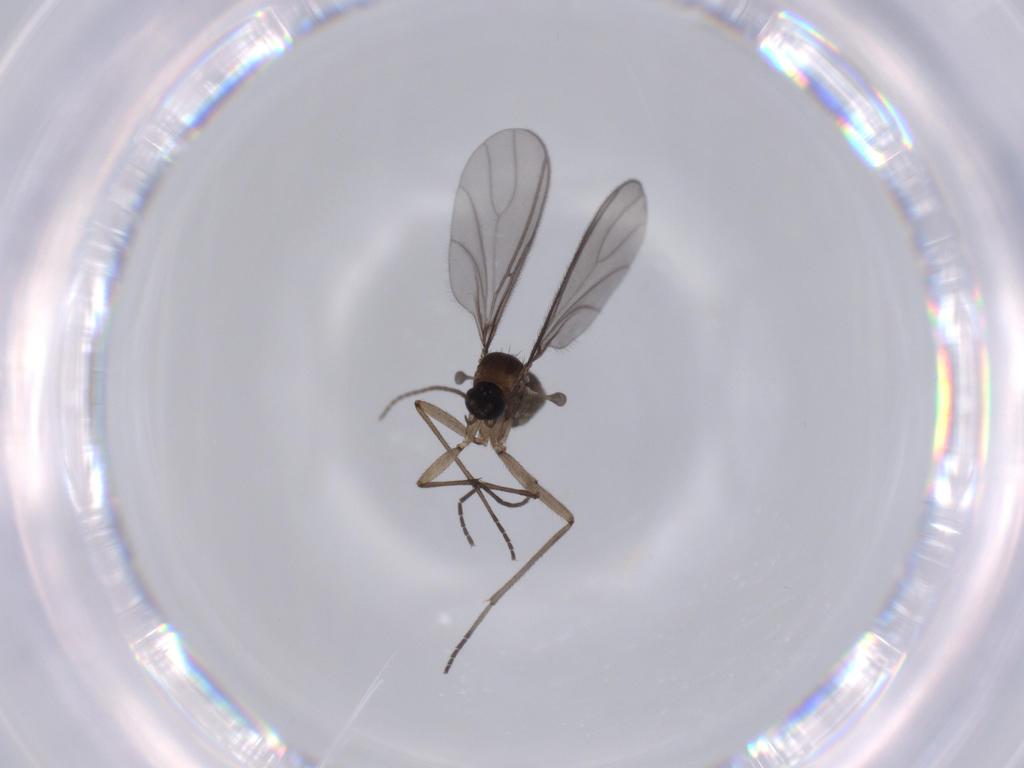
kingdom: Animalia
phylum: Arthropoda
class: Insecta
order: Diptera
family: Sciaridae
